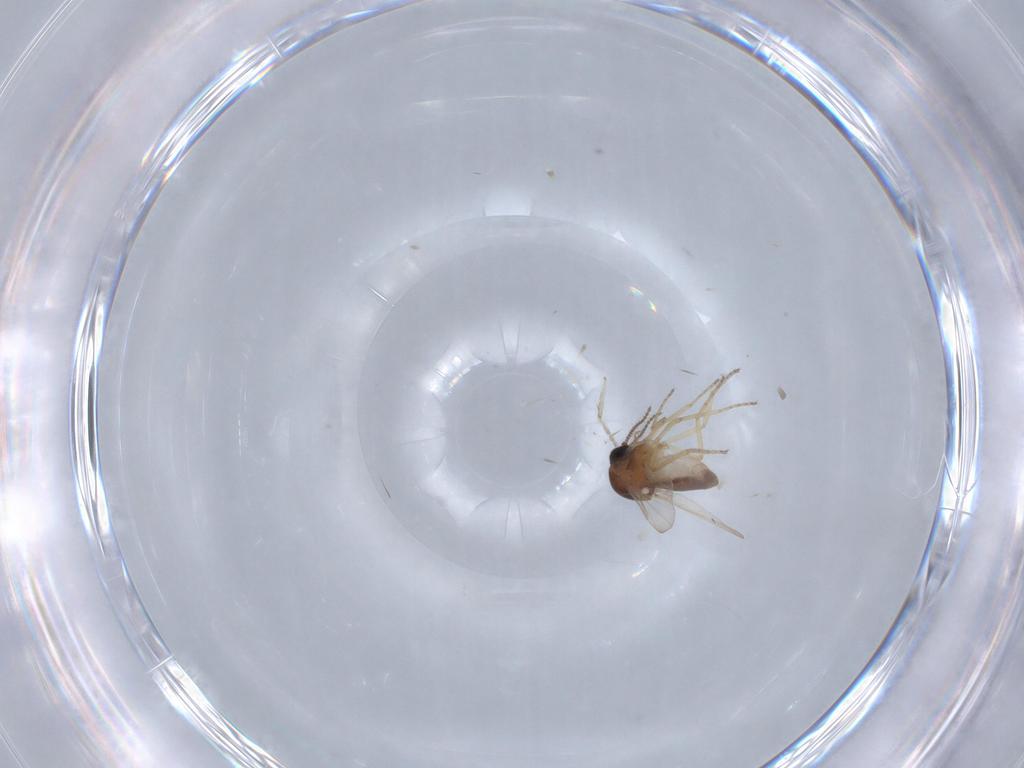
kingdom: Animalia
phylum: Arthropoda
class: Insecta
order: Diptera
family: Ceratopogonidae
